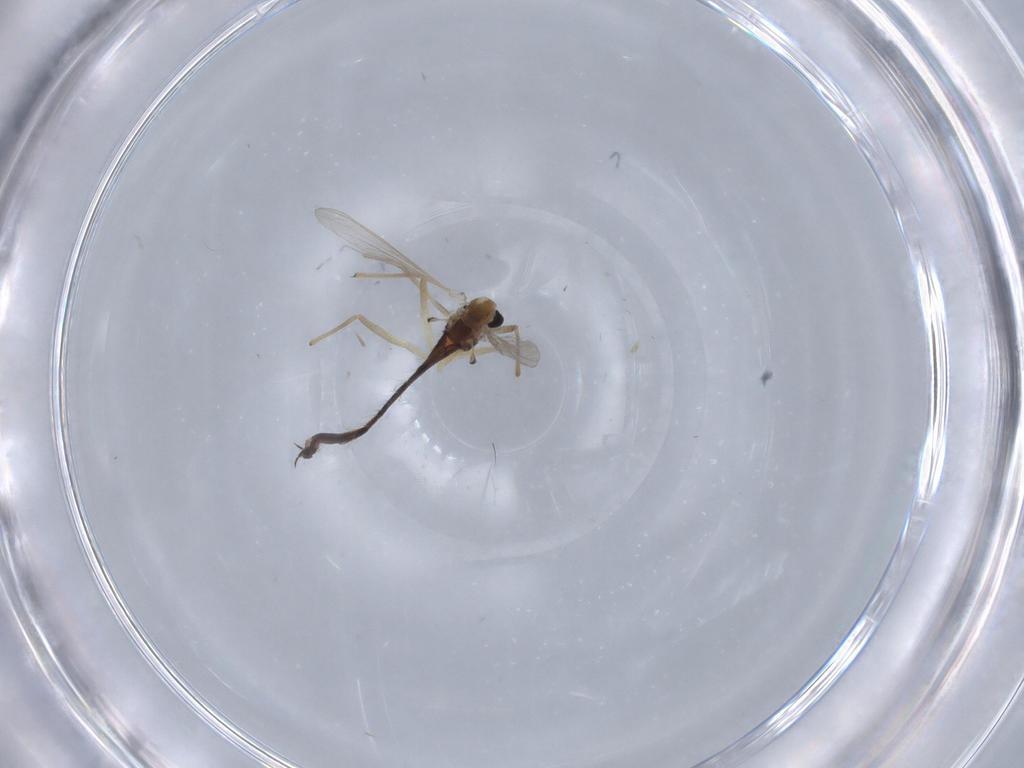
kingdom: Animalia
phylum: Arthropoda
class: Insecta
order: Diptera
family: Chironomidae
